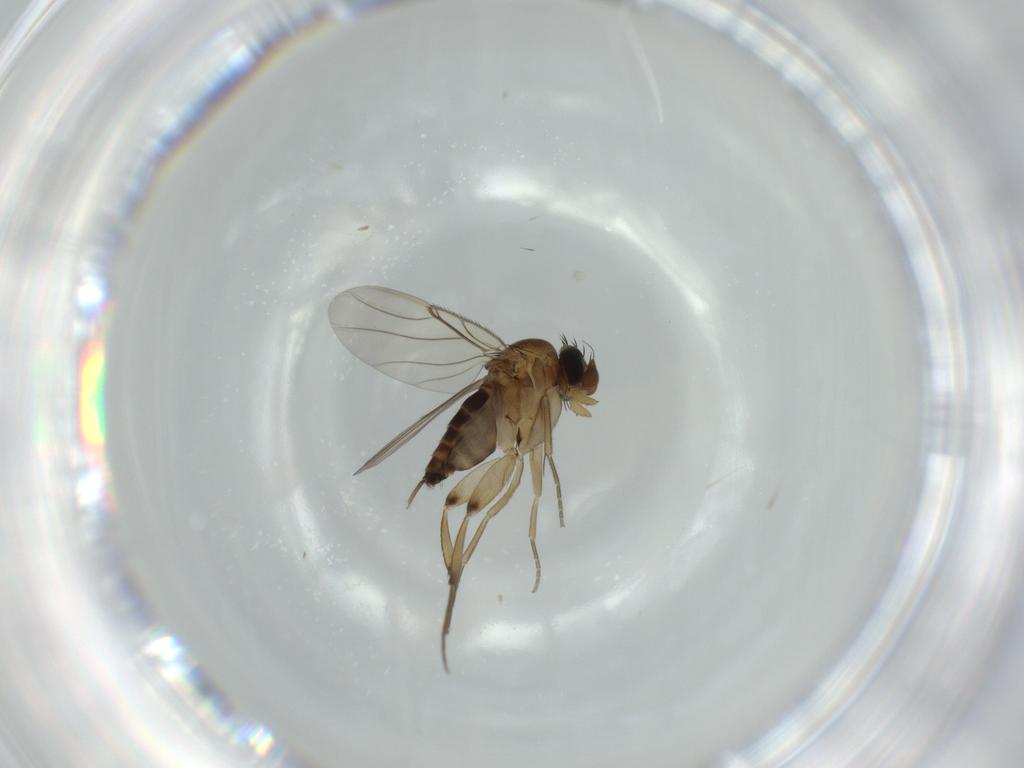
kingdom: Animalia
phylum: Arthropoda
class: Insecta
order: Diptera
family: Phoridae
